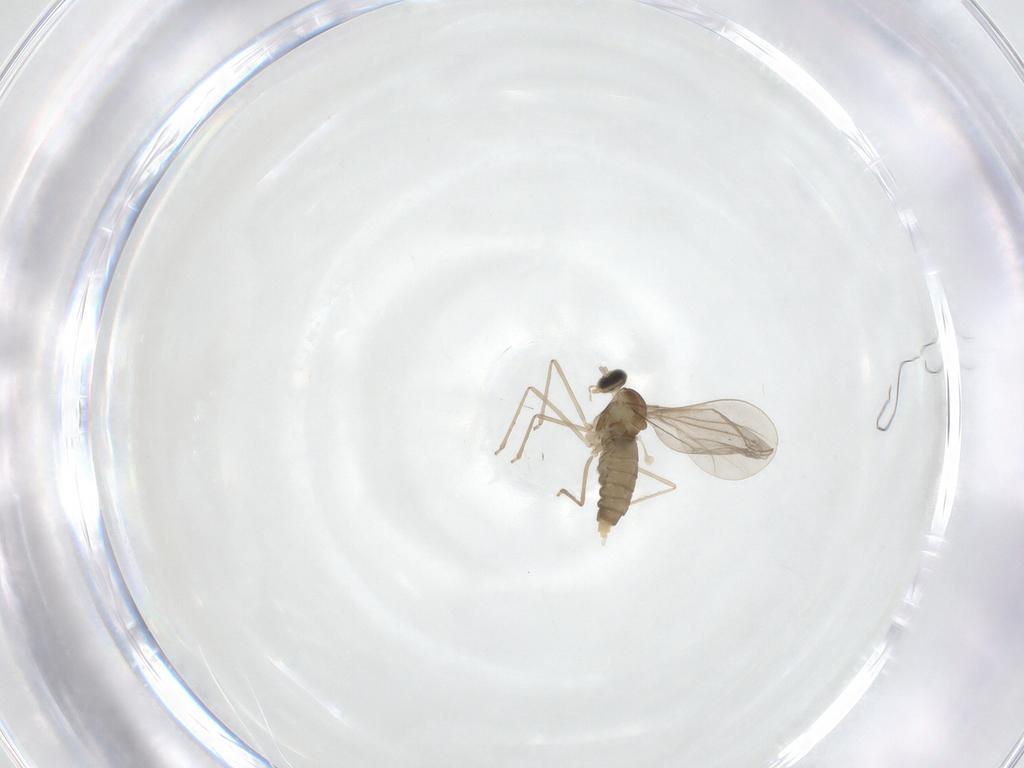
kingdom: Animalia
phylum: Arthropoda
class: Insecta
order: Diptera
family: Cecidomyiidae
